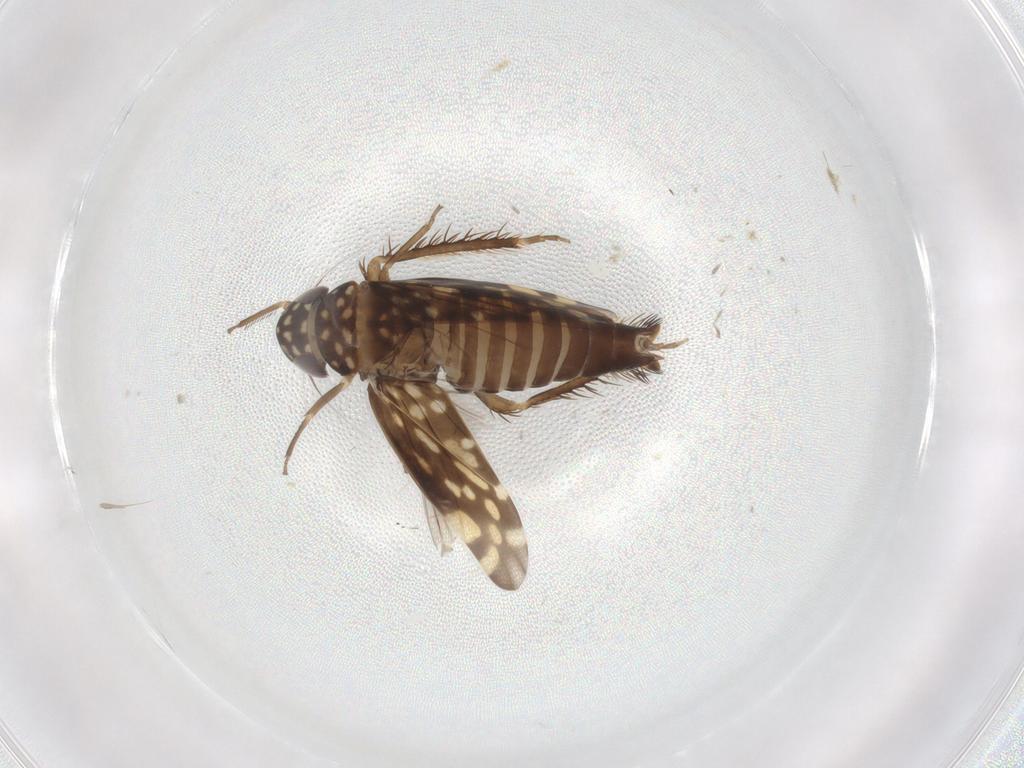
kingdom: Animalia
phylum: Arthropoda
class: Insecta
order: Hemiptera
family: Cicadellidae
